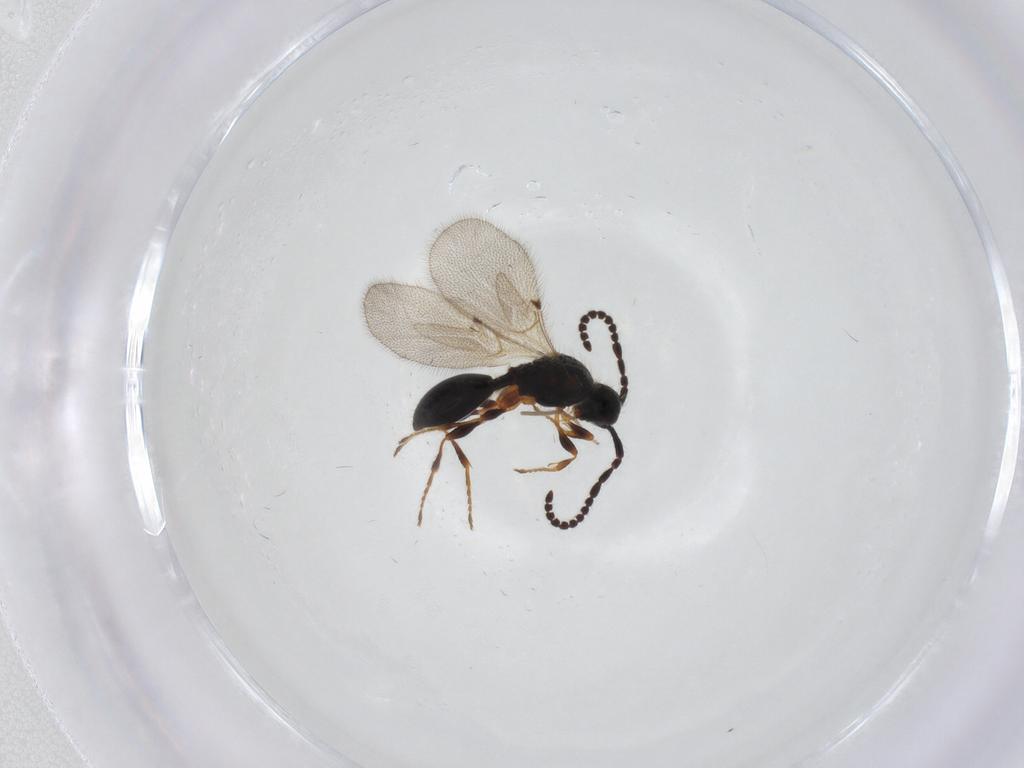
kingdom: Animalia
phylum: Arthropoda
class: Insecta
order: Hymenoptera
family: Diapriidae
